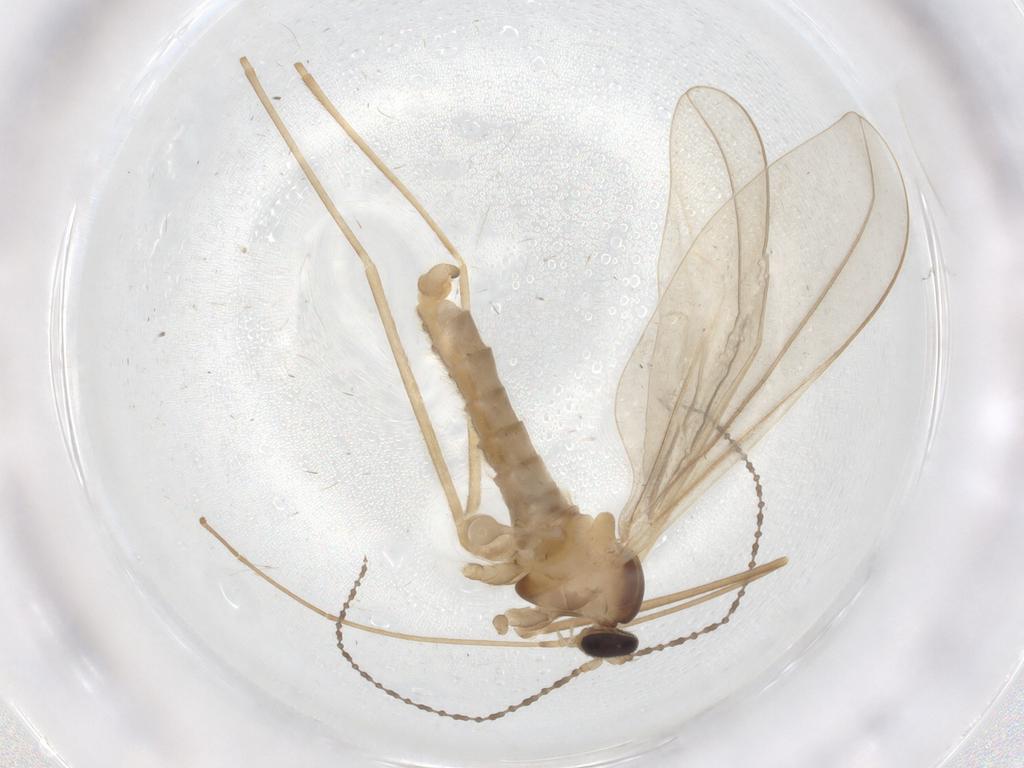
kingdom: Animalia
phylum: Arthropoda
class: Insecta
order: Diptera
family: Cecidomyiidae
